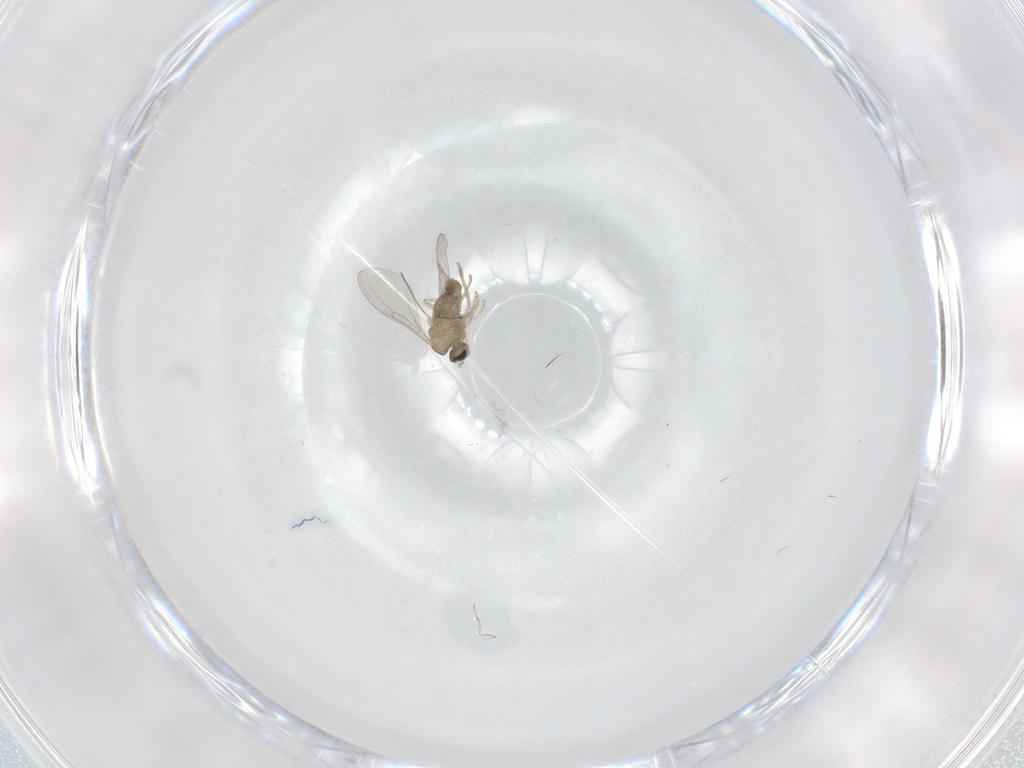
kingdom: Animalia
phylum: Arthropoda
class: Insecta
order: Diptera
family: Cecidomyiidae
